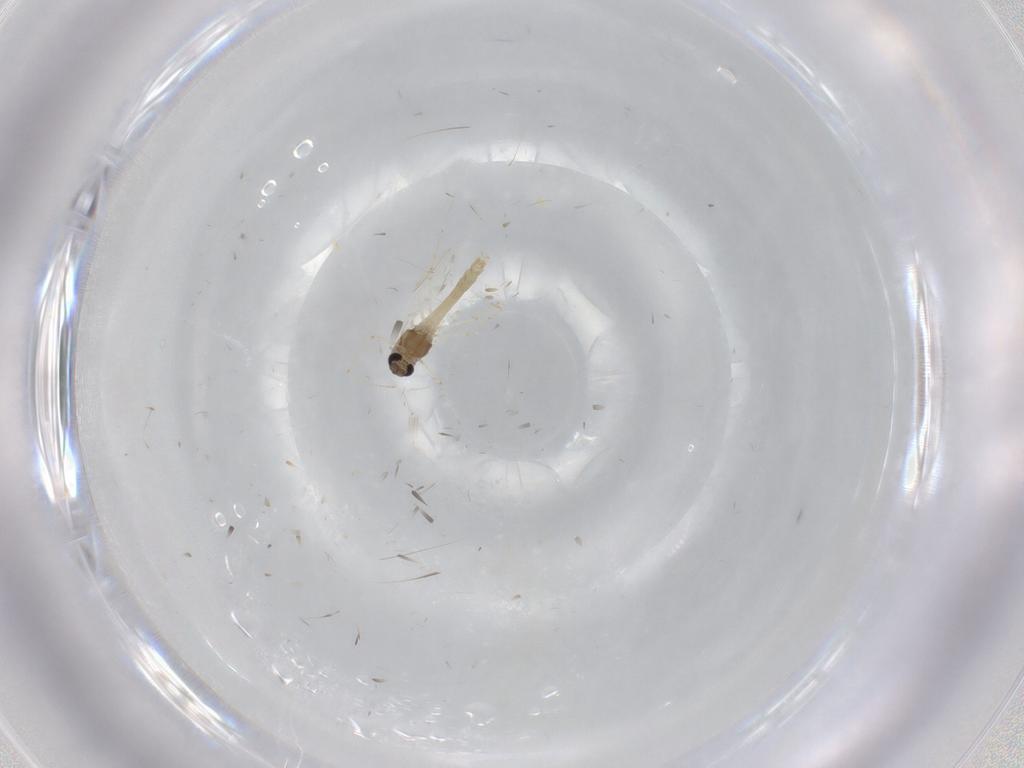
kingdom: Animalia
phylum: Arthropoda
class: Insecta
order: Diptera
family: Chironomidae
